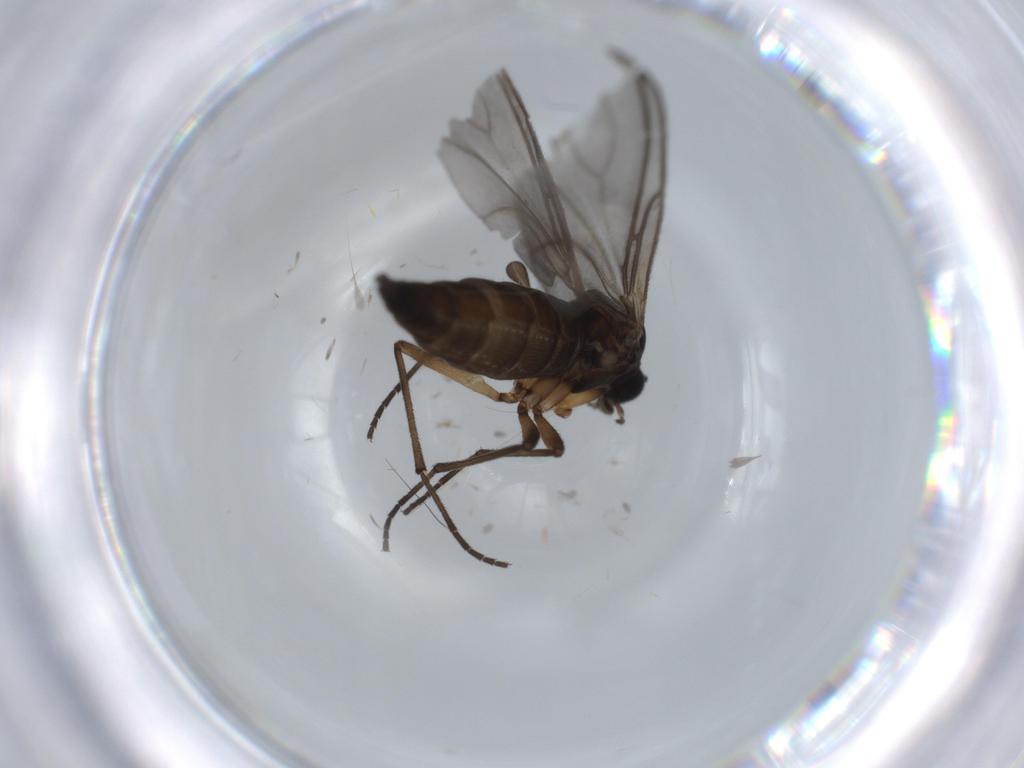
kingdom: Animalia
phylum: Arthropoda
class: Insecta
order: Diptera
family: Sciaridae
